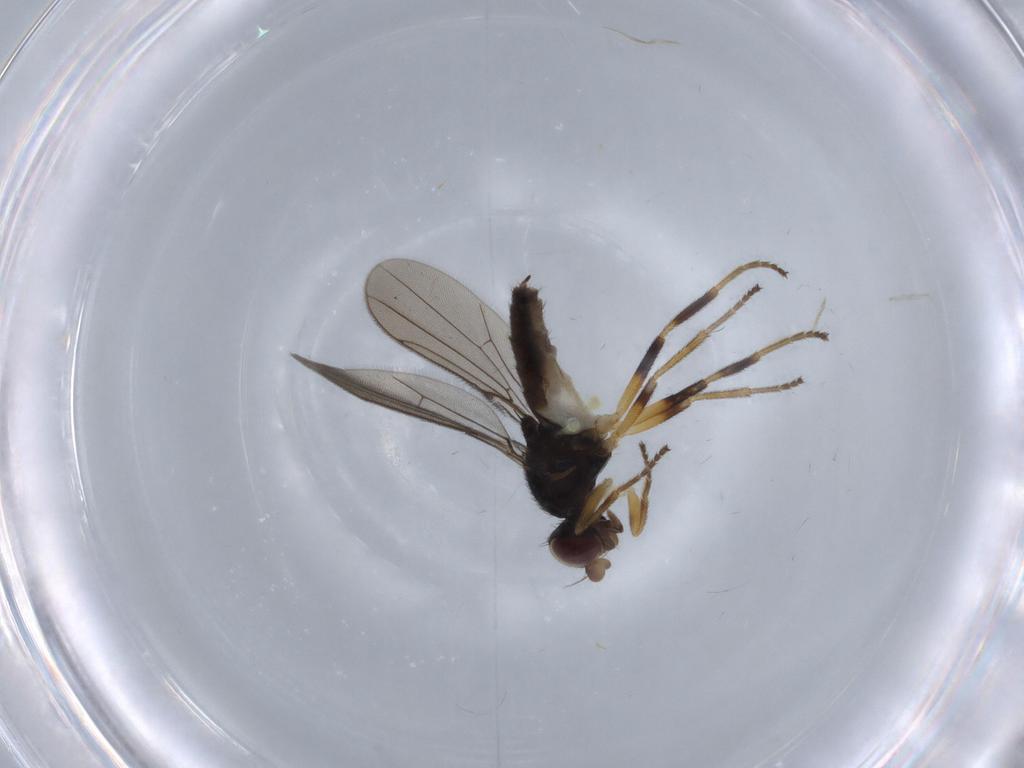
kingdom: Animalia
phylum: Arthropoda
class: Insecta
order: Diptera
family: Chloropidae
